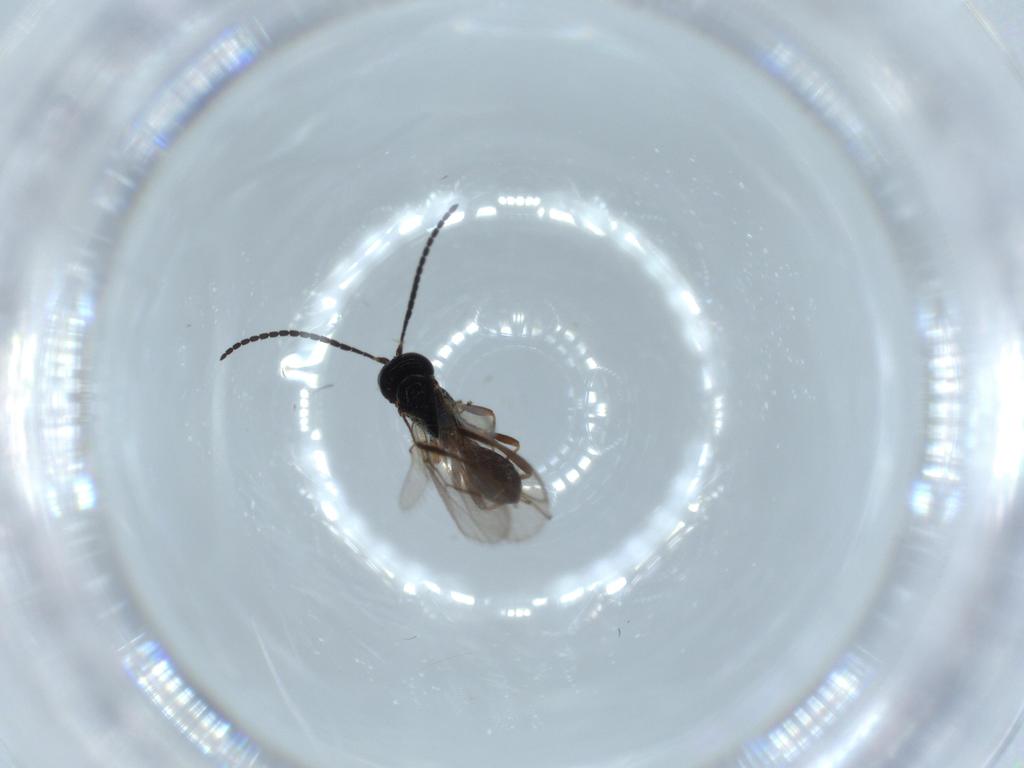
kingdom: Animalia
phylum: Arthropoda
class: Insecta
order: Hymenoptera
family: Braconidae
